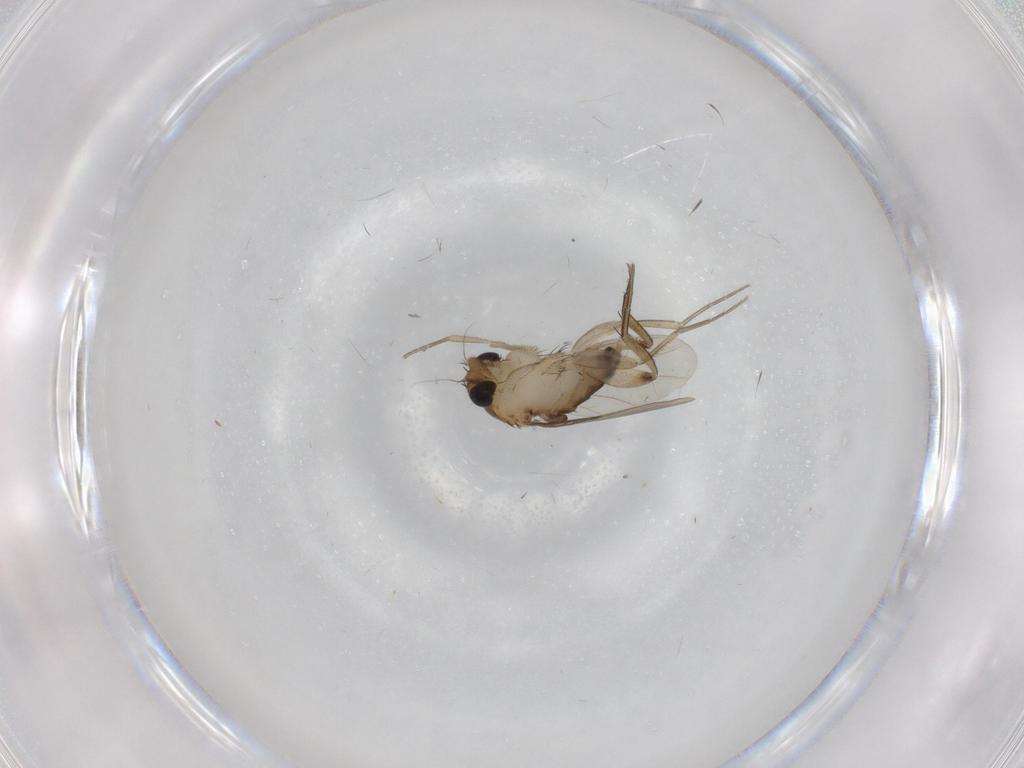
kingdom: Animalia
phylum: Arthropoda
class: Insecta
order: Diptera
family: Phoridae
